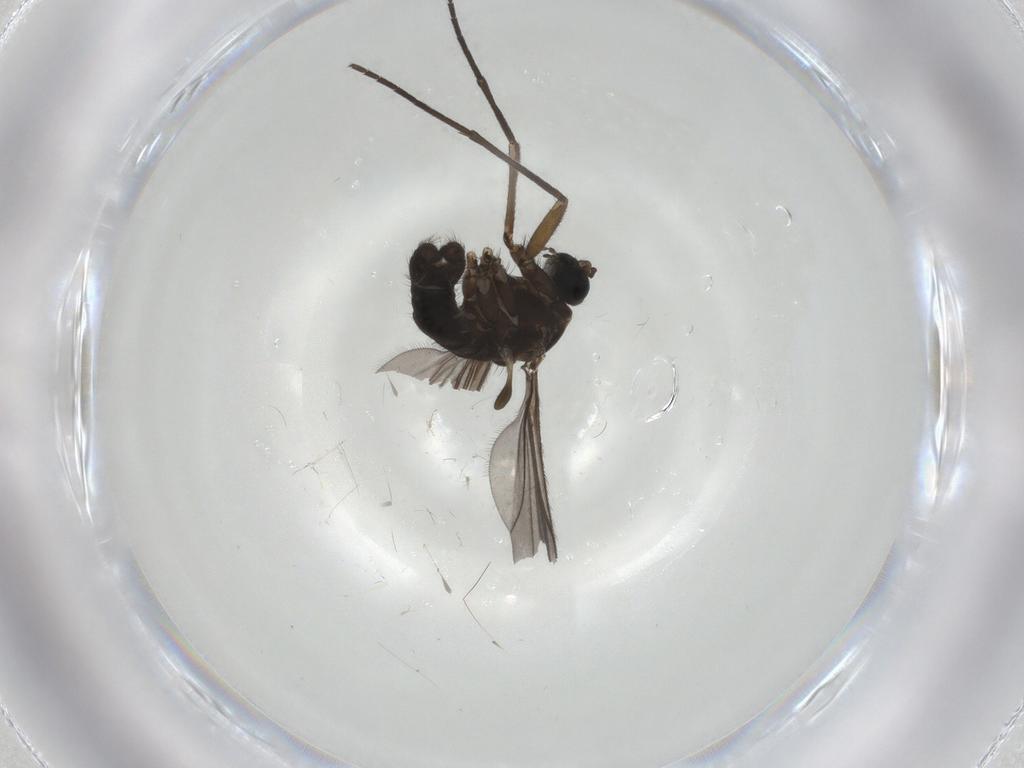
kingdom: Animalia
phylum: Arthropoda
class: Insecta
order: Diptera
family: Sciaridae
